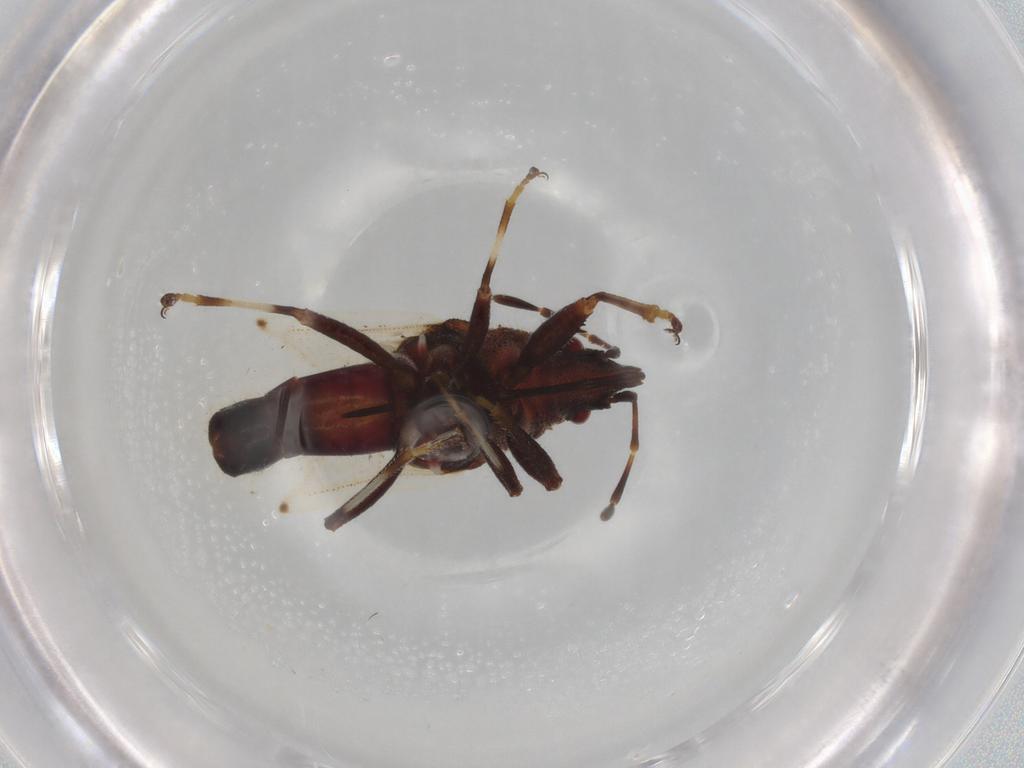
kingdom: Animalia
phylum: Arthropoda
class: Insecta
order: Hemiptera
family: Oxycarenidae
